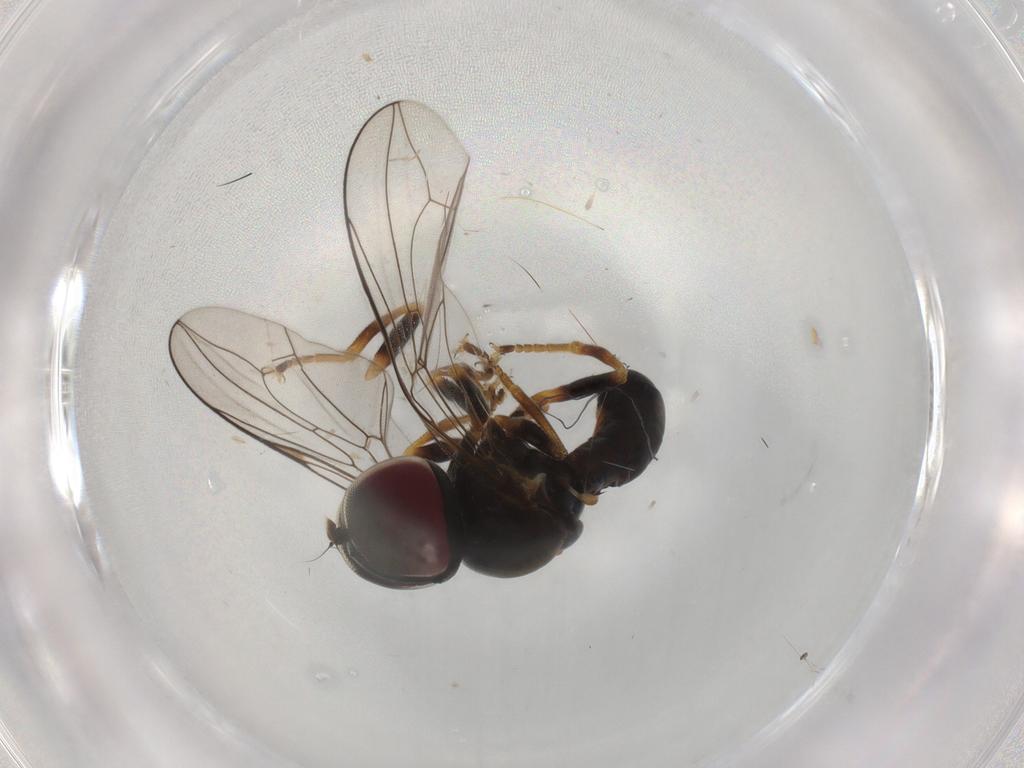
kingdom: Animalia
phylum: Arthropoda
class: Insecta
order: Diptera
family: Pipunculidae
